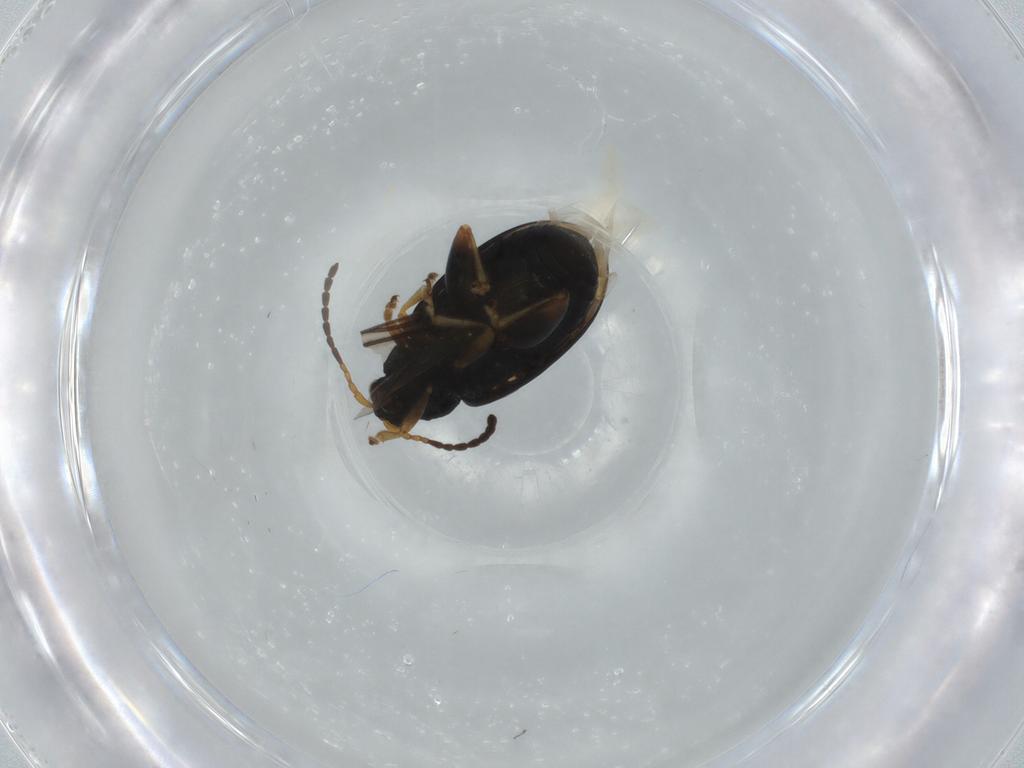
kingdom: Animalia
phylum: Arthropoda
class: Insecta
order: Coleoptera
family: Chrysomelidae
